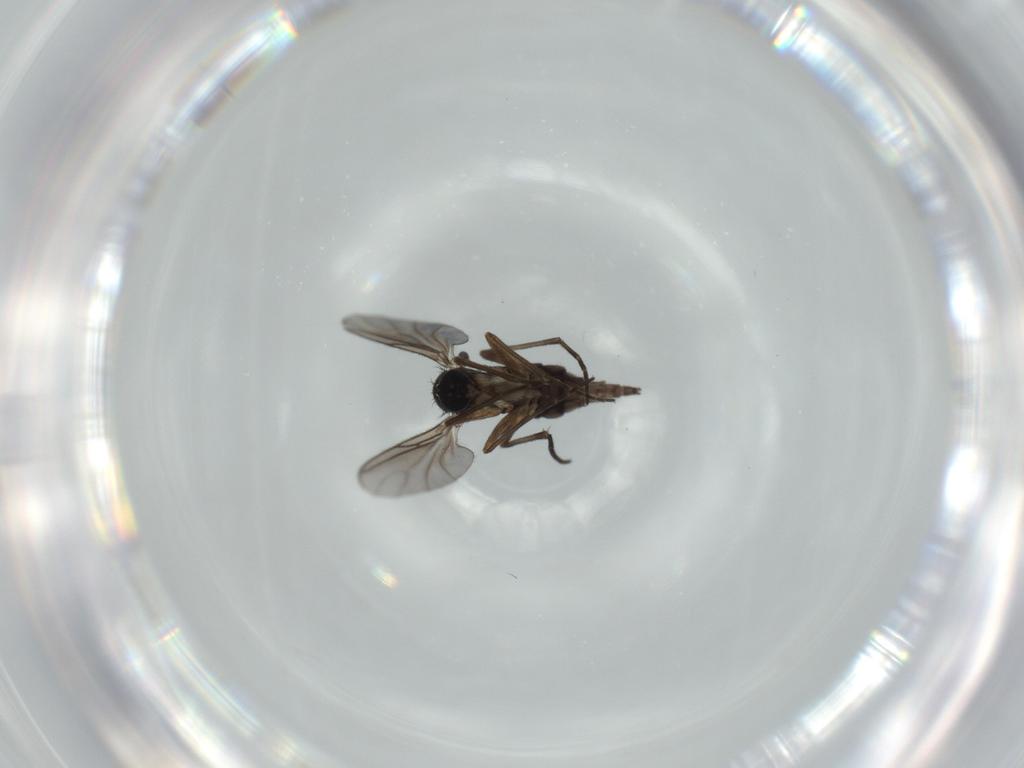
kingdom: Animalia
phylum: Arthropoda
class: Insecta
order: Diptera
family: Sciaridae
